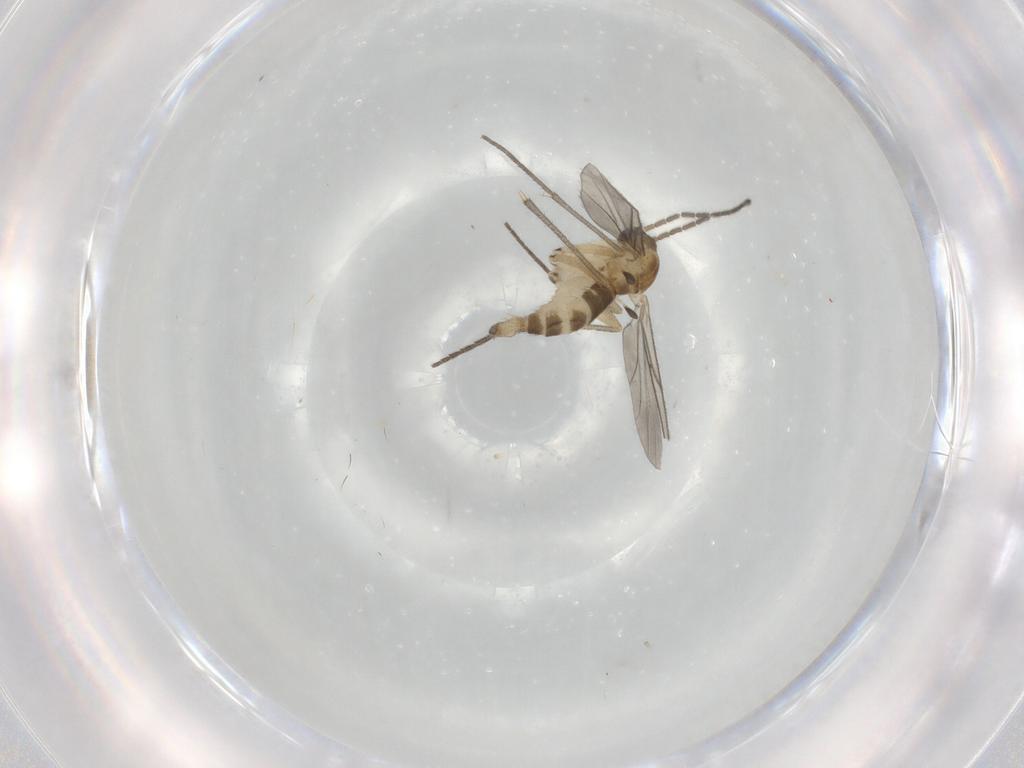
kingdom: Animalia
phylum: Arthropoda
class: Insecta
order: Diptera
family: Sciaridae
